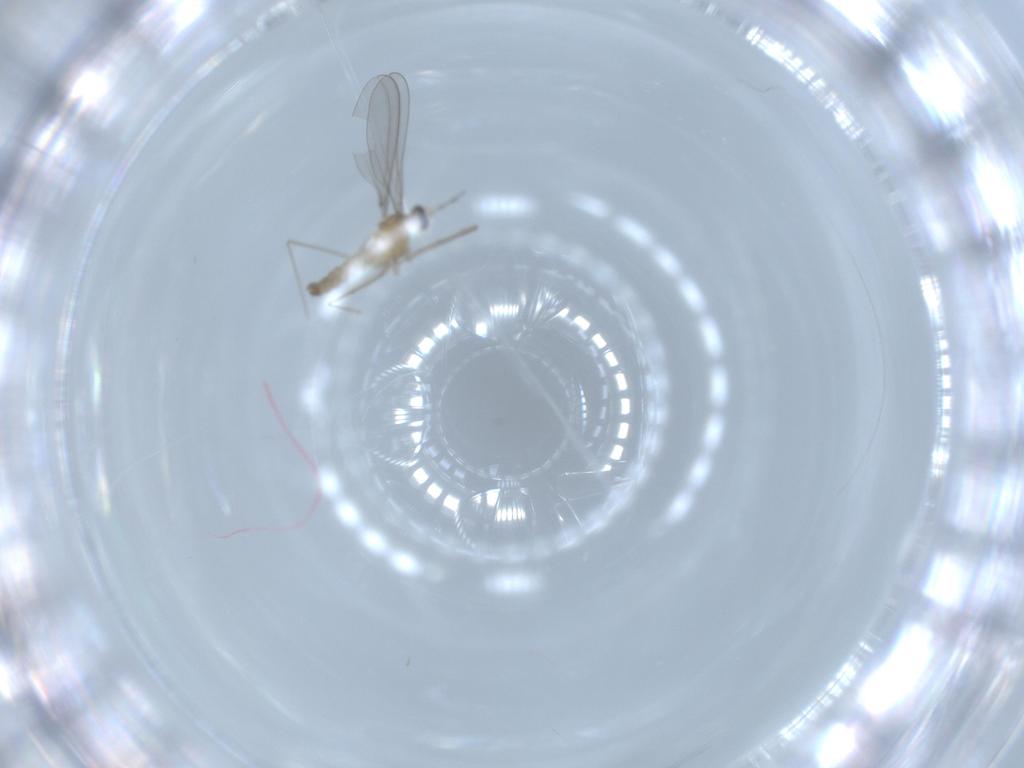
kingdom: Animalia
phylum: Arthropoda
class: Insecta
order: Diptera
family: Cecidomyiidae
